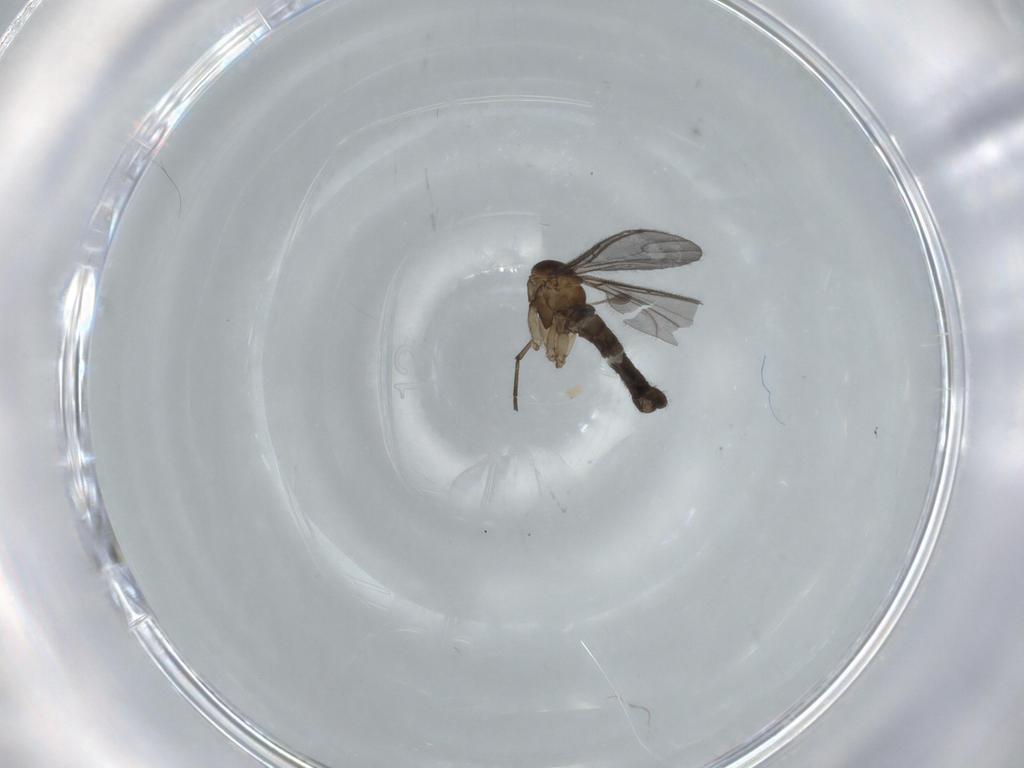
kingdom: Animalia
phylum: Arthropoda
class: Insecta
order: Diptera
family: Sciaridae
